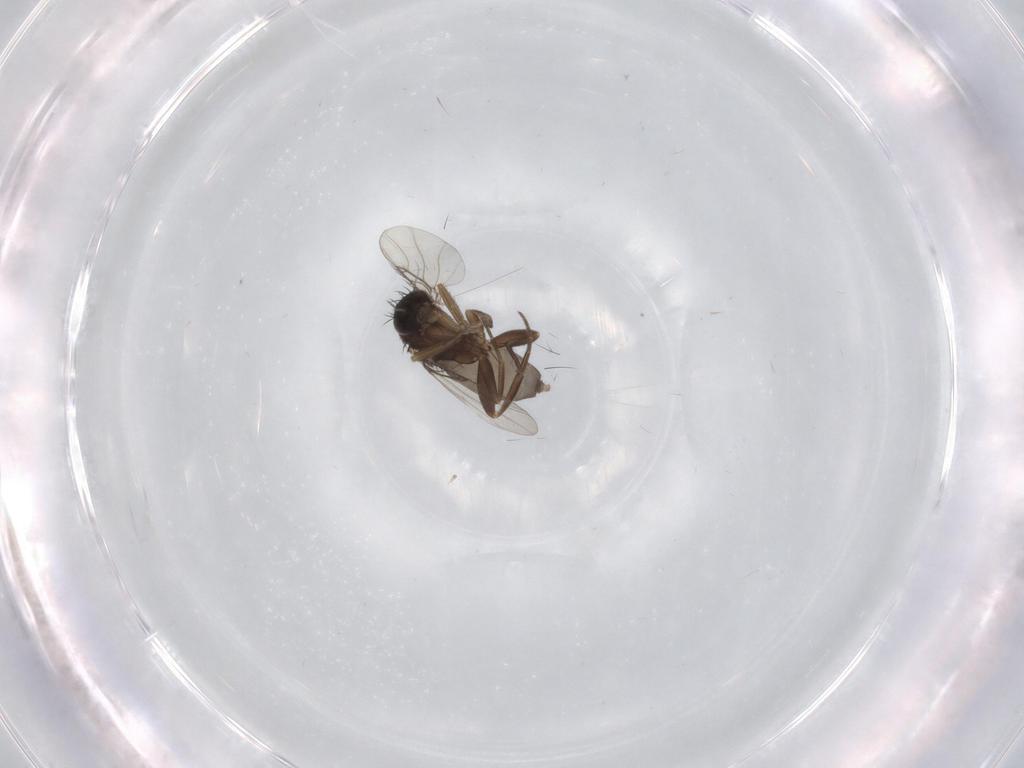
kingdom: Animalia
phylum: Arthropoda
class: Insecta
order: Diptera
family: Phoridae
